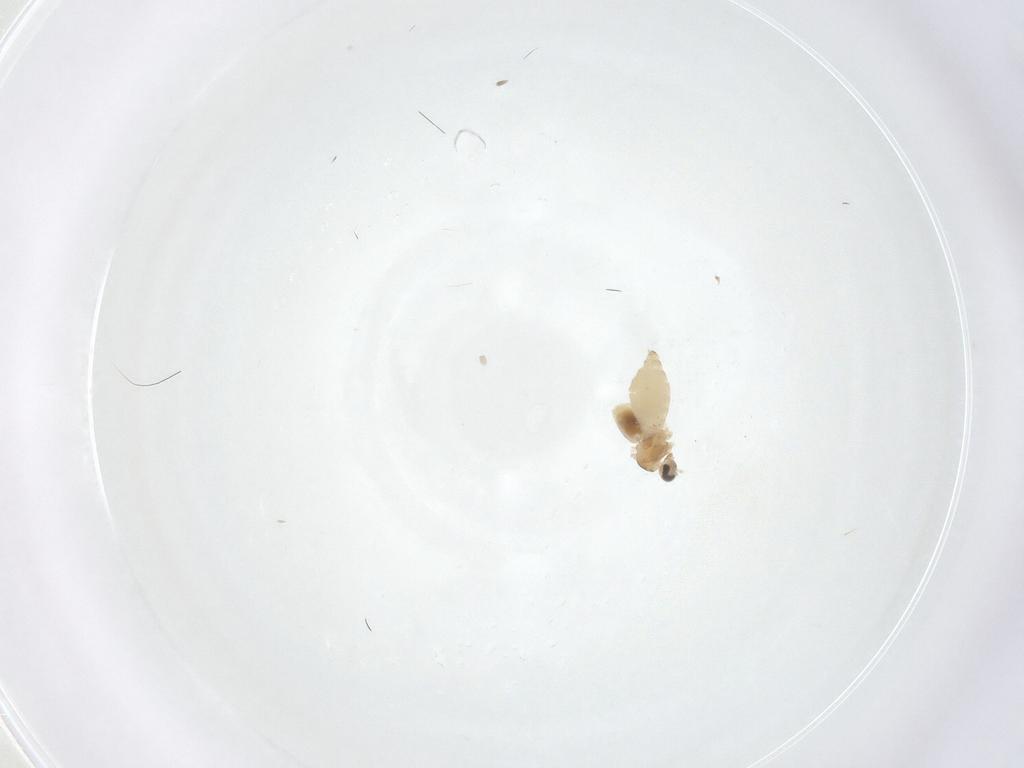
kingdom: Animalia
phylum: Arthropoda
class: Insecta
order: Diptera
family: Cecidomyiidae
